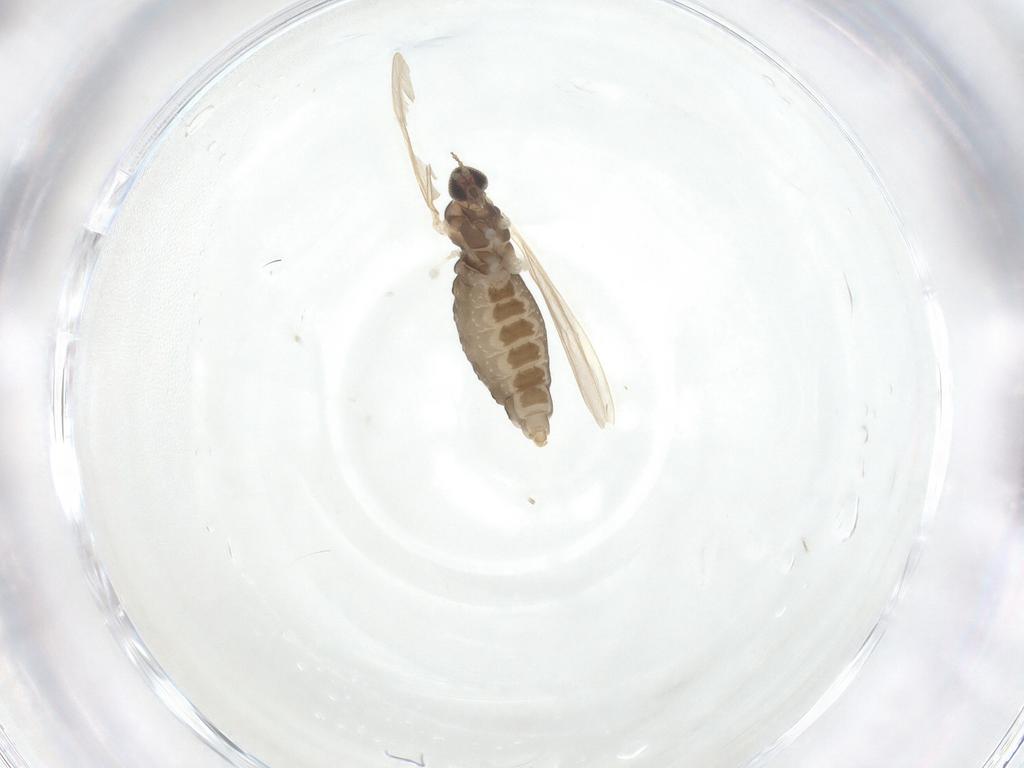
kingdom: Animalia
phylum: Arthropoda
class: Insecta
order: Diptera
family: Cecidomyiidae
